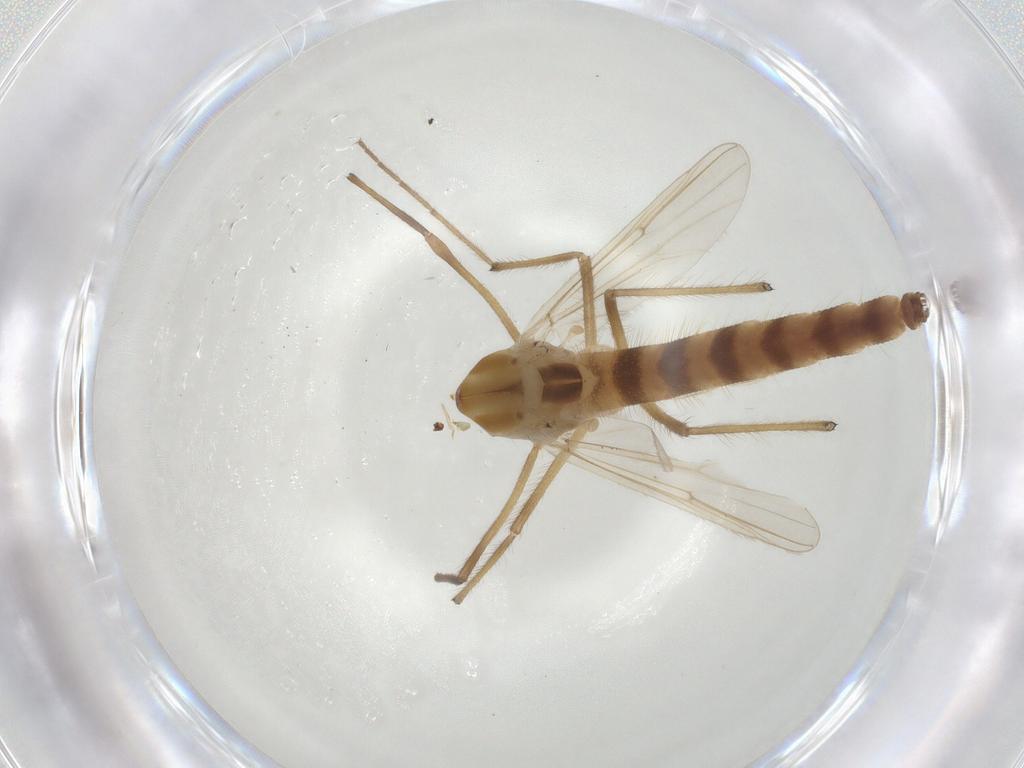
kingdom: Animalia
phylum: Arthropoda
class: Insecta
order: Diptera
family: Chironomidae
